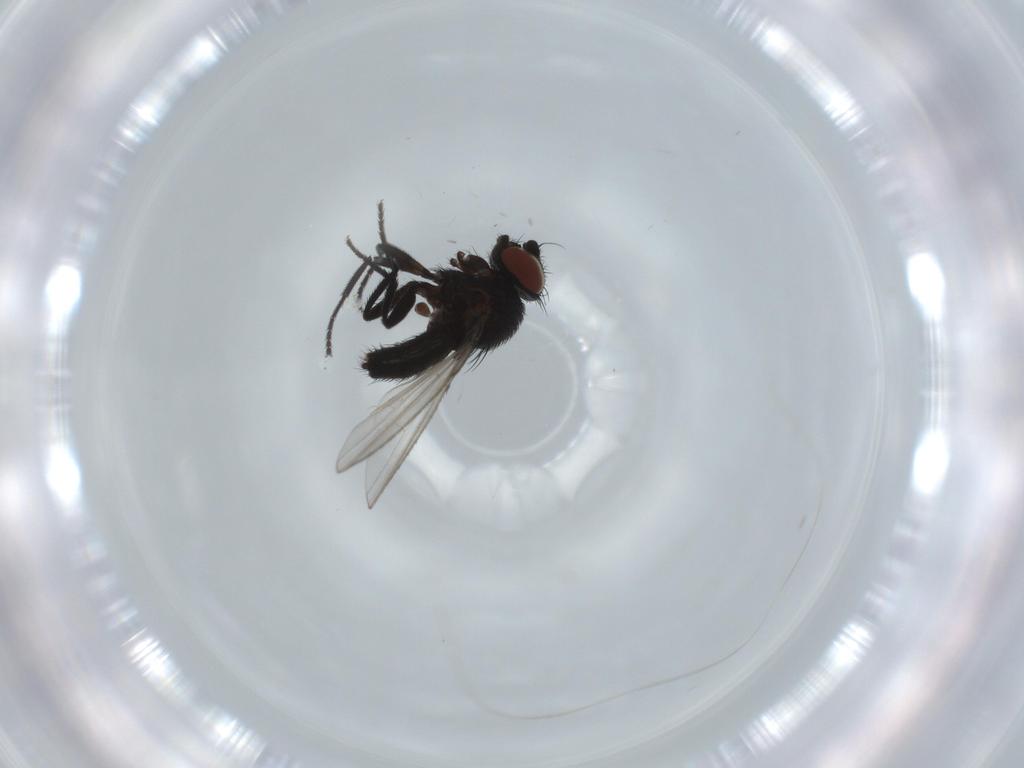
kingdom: Animalia
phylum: Arthropoda
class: Insecta
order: Diptera
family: Milichiidae
